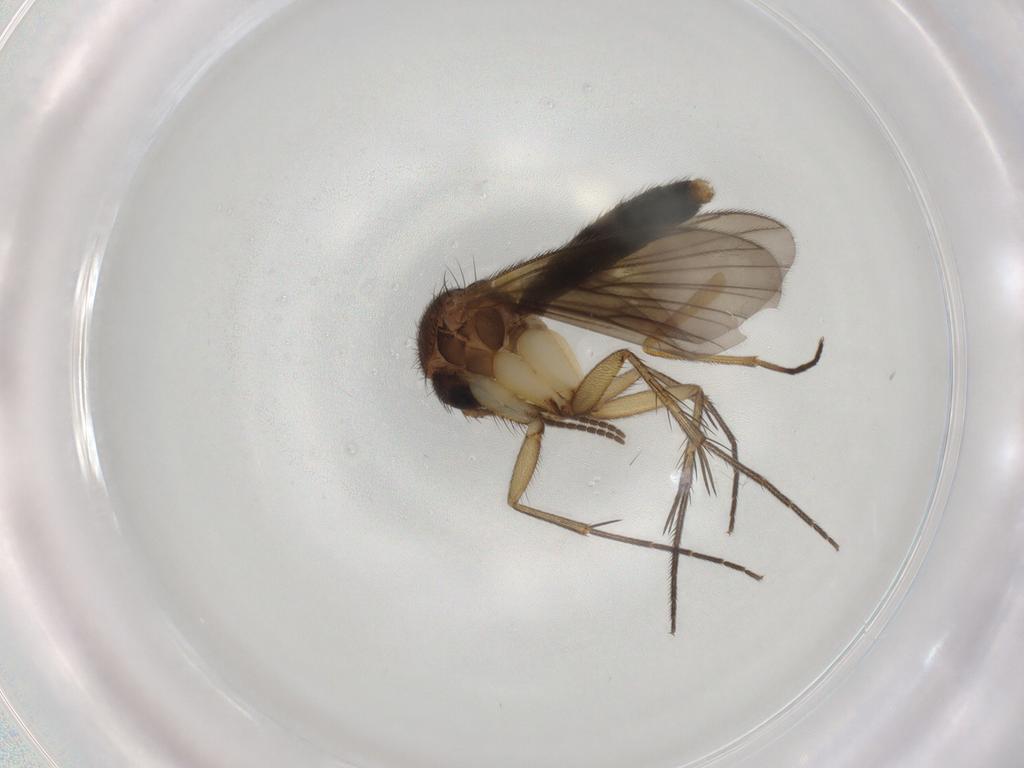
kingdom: Animalia
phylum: Arthropoda
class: Insecta
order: Diptera
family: Mycetophilidae
